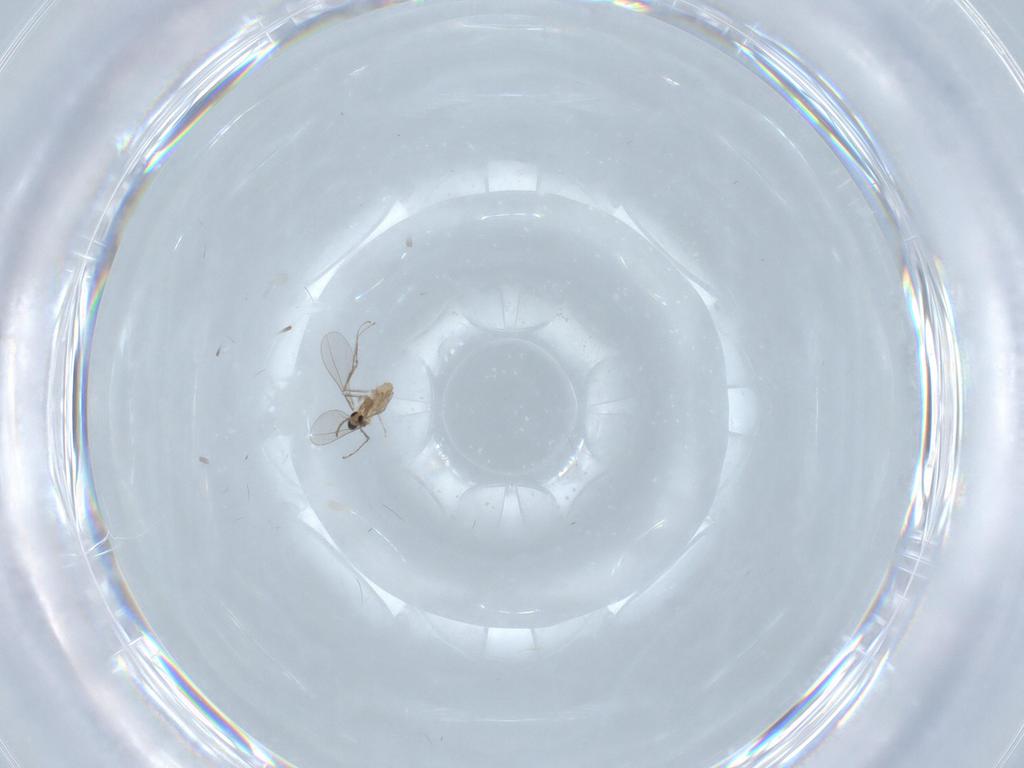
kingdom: Animalia
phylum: Arthropoda
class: Insecta
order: Diptera
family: Cecidomyiidae
